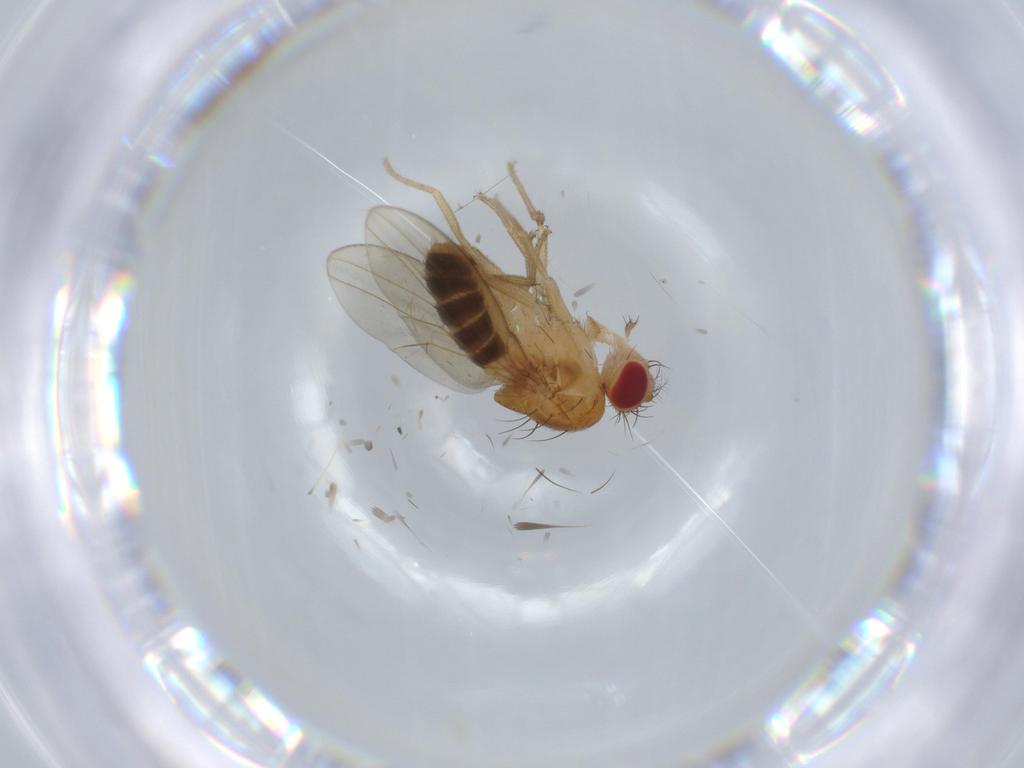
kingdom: Animalia
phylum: Arthropoda
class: Insecta
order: Diptera
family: Drosophilidae
